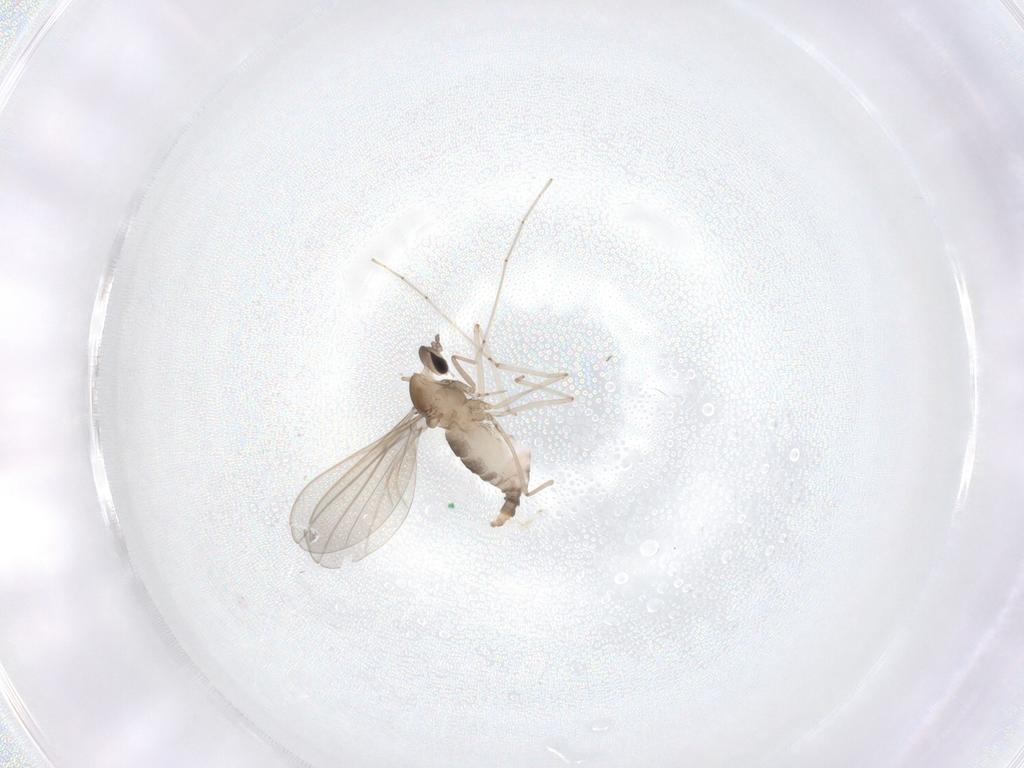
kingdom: Animalia
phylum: Arthropoda
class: Insecta
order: Diptera
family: Cecidomyiidae
